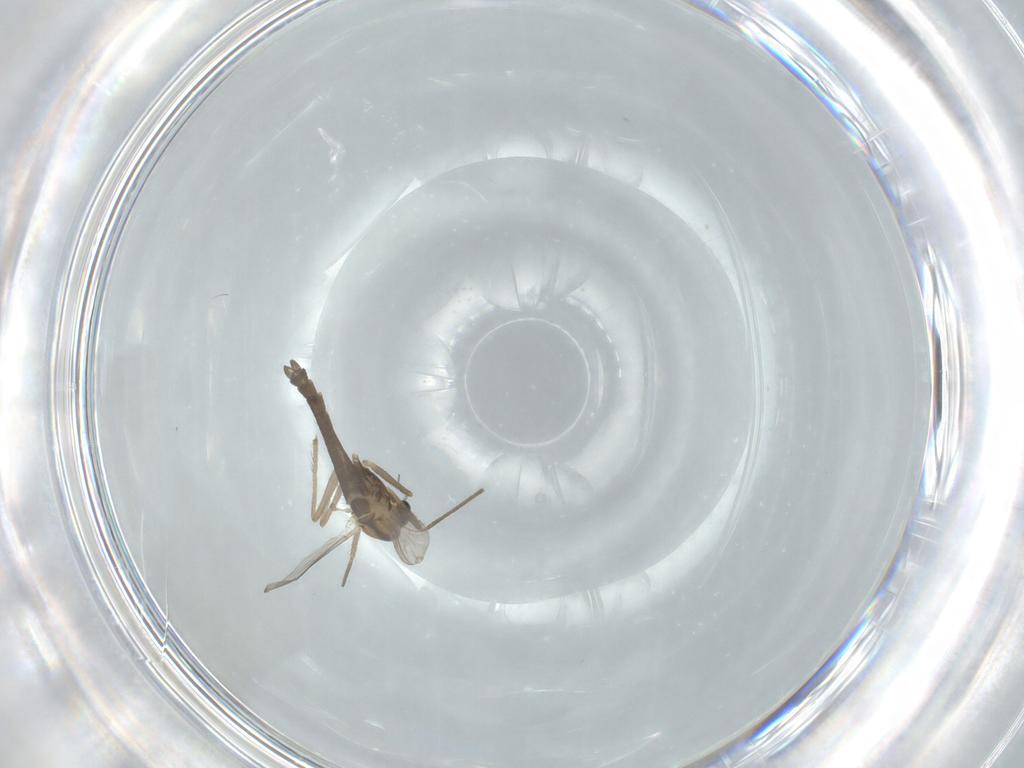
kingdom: Animalia
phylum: Arthropoda
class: Insecta
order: Diptera
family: Chironomidae
